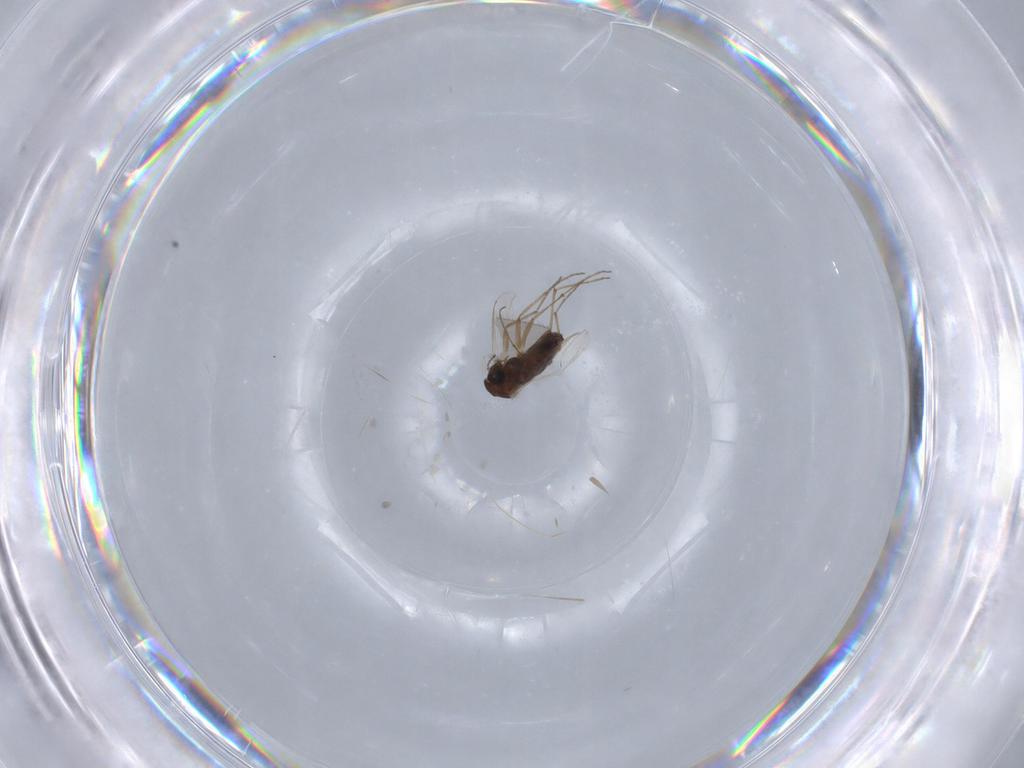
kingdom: Animalia
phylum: Arthropoda
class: Insecta
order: Diptera
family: Chironomidae
